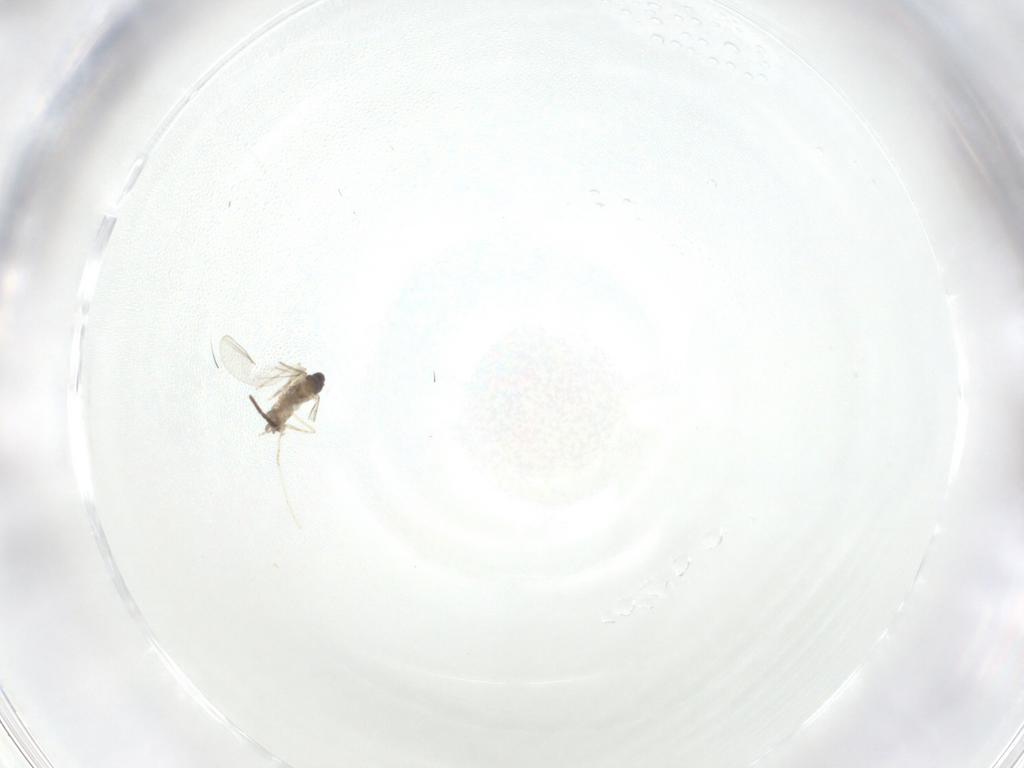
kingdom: Animalia
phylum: Arthropoda
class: Insecta
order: Diptera
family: Cecidomyiidae
